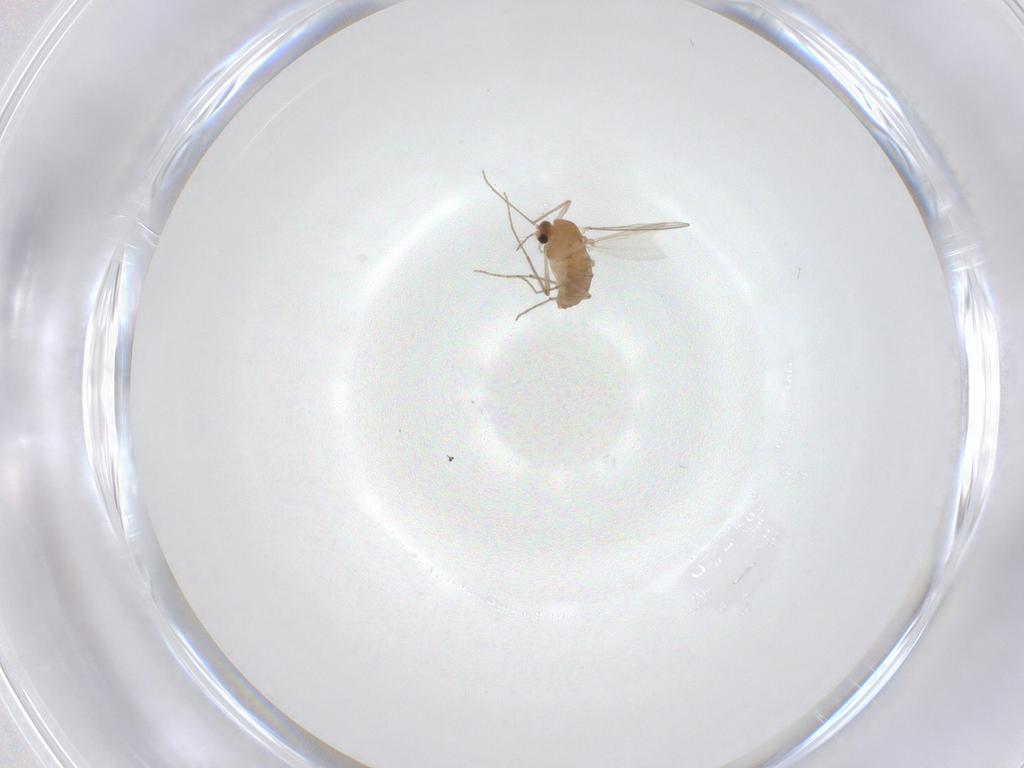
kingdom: Animalia
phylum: Arthropoda
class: Insecta
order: Diptera
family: Chironomidae
